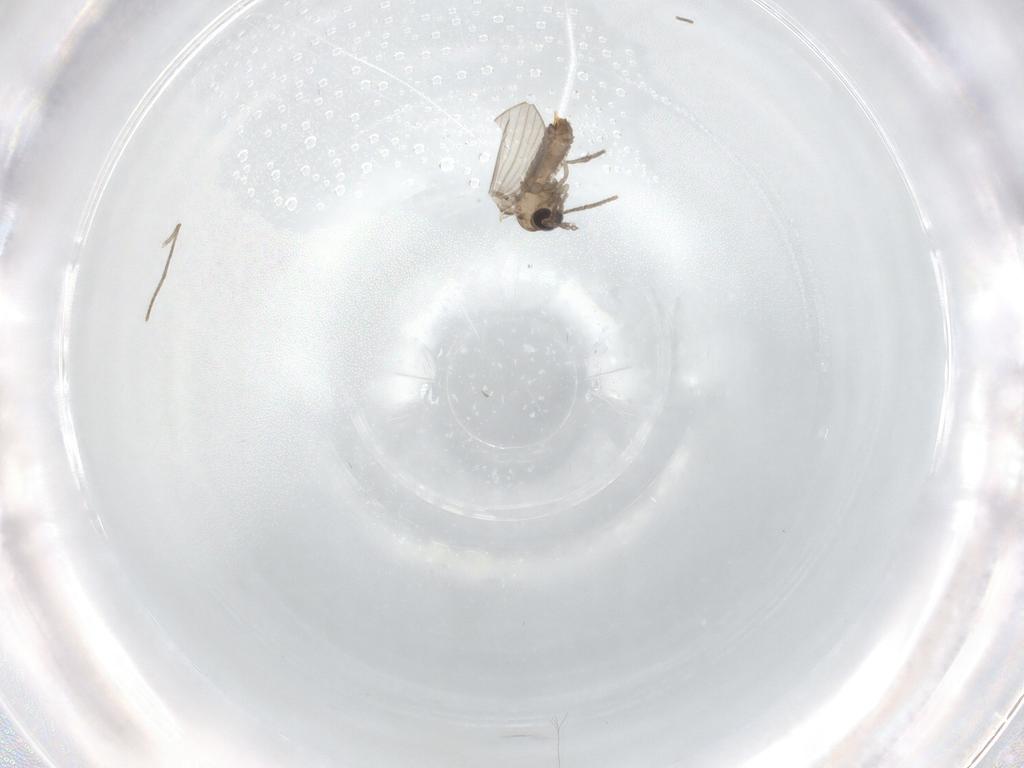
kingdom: Animalia
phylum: Arthropoda
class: Insecta
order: Diptera
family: Psychodidae
